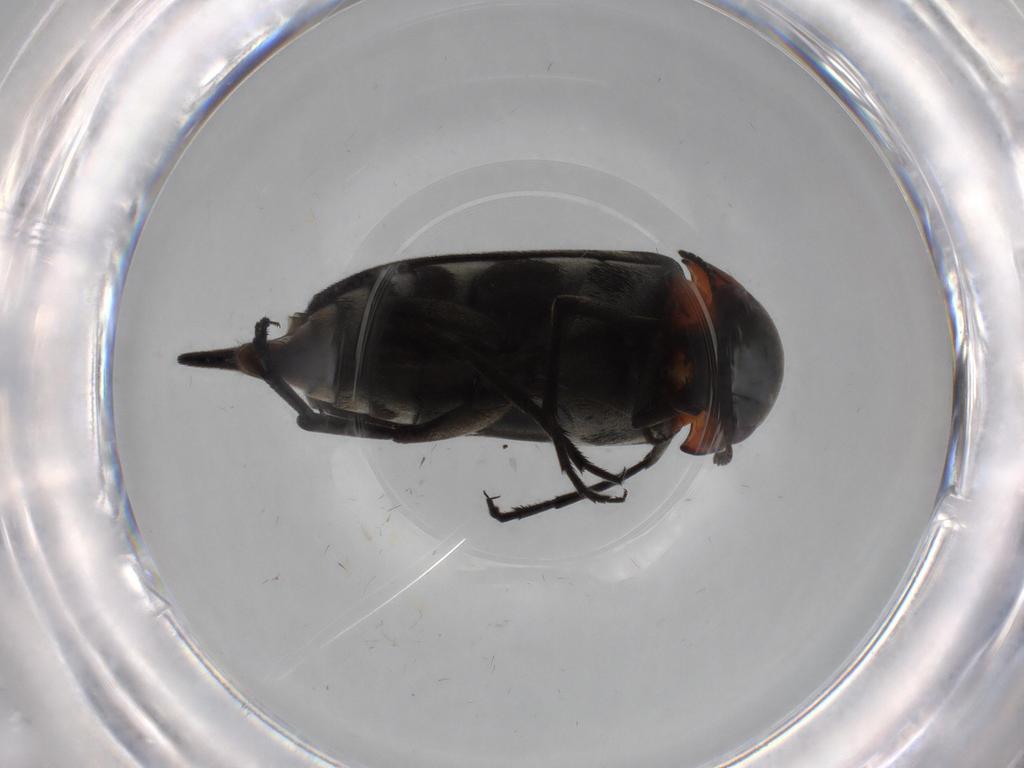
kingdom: Animalia
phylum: Arthropoda
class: Insecta
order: Coleoptera
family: Mordellidae
